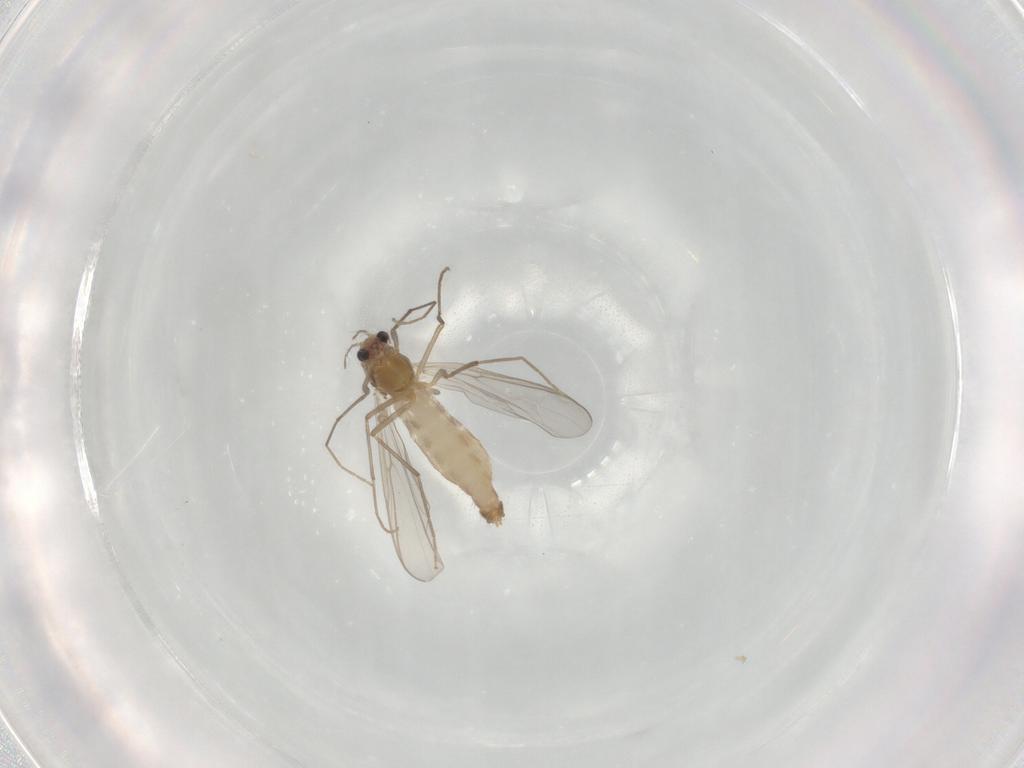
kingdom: Animalia
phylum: Arthropoda
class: Insecta
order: Diptera
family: Chironomidae
